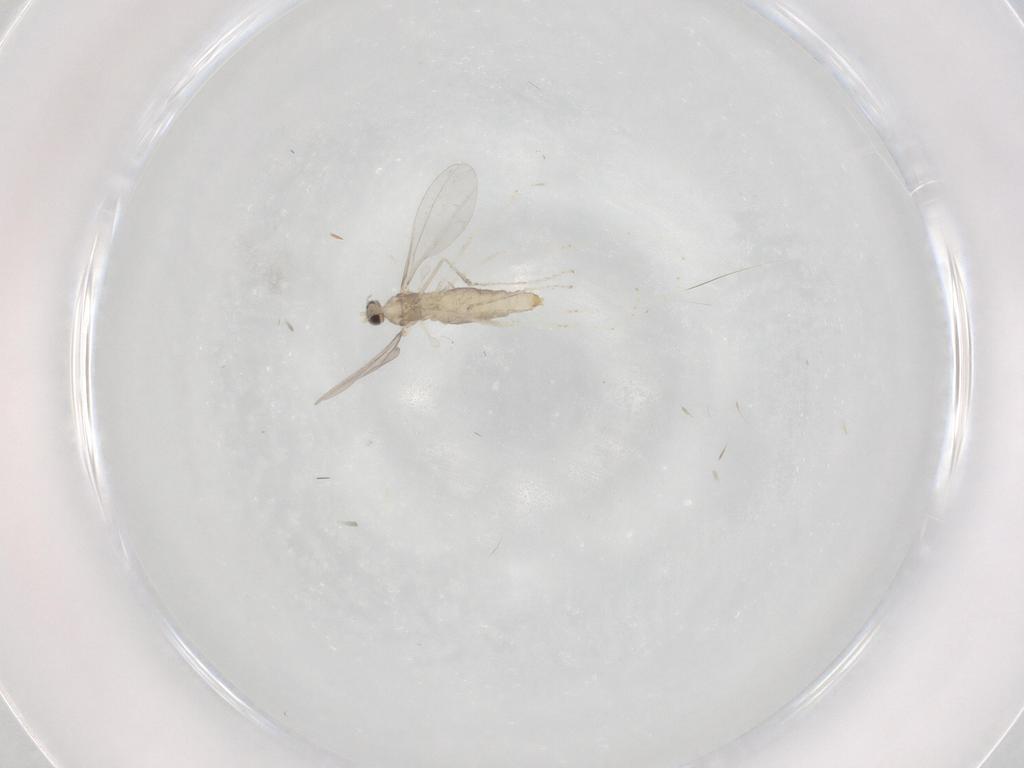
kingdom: Animalia
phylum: Arthropoda
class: Insecta
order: Diptera
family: Cecidomyiidae
